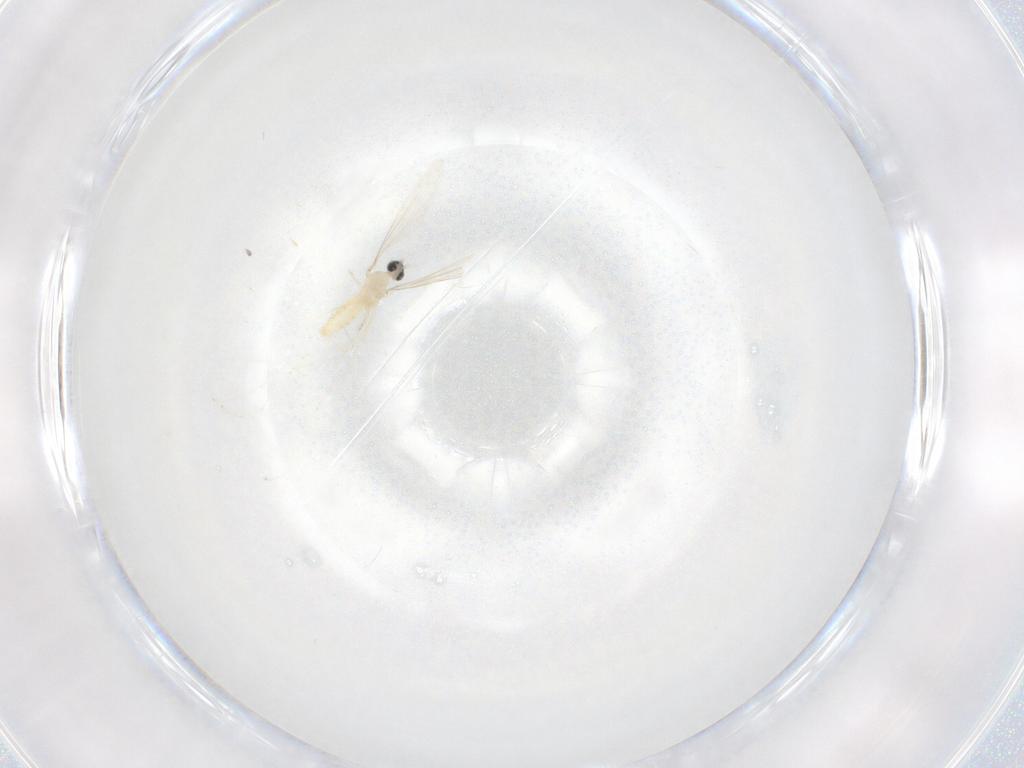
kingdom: Animalia
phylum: Arthropoda
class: Insecta
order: Diptera
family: Cecidomyiidae
